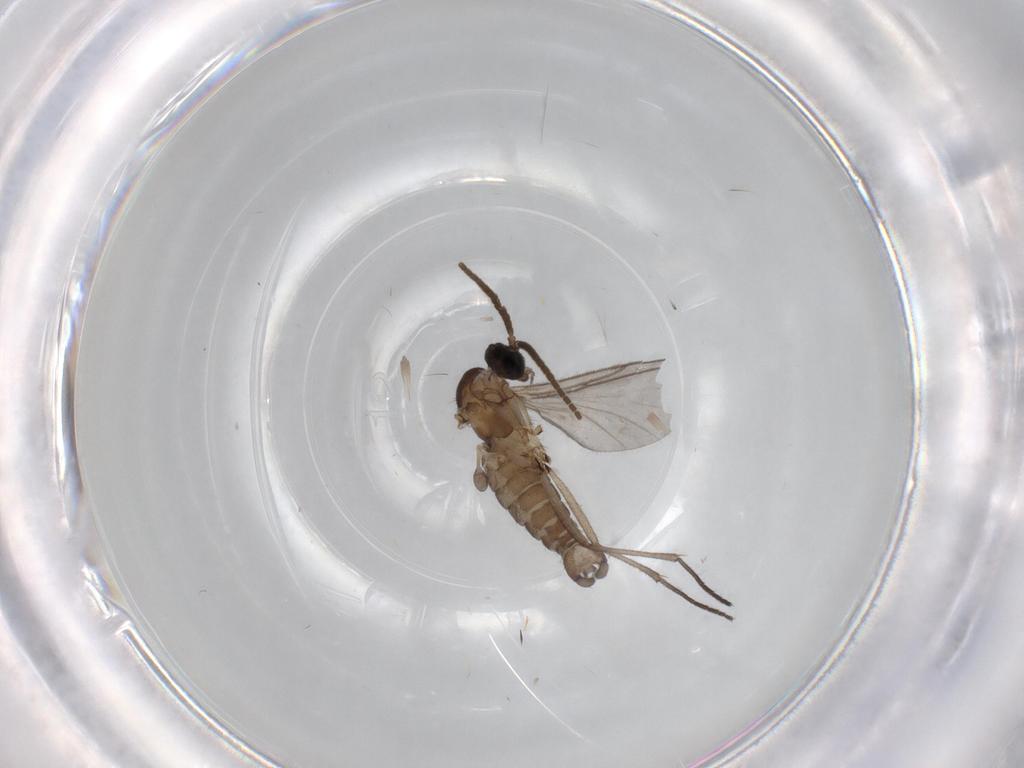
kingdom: Animalia
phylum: Arthropoda
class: Insecta
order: Diptera
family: Sciaridae
